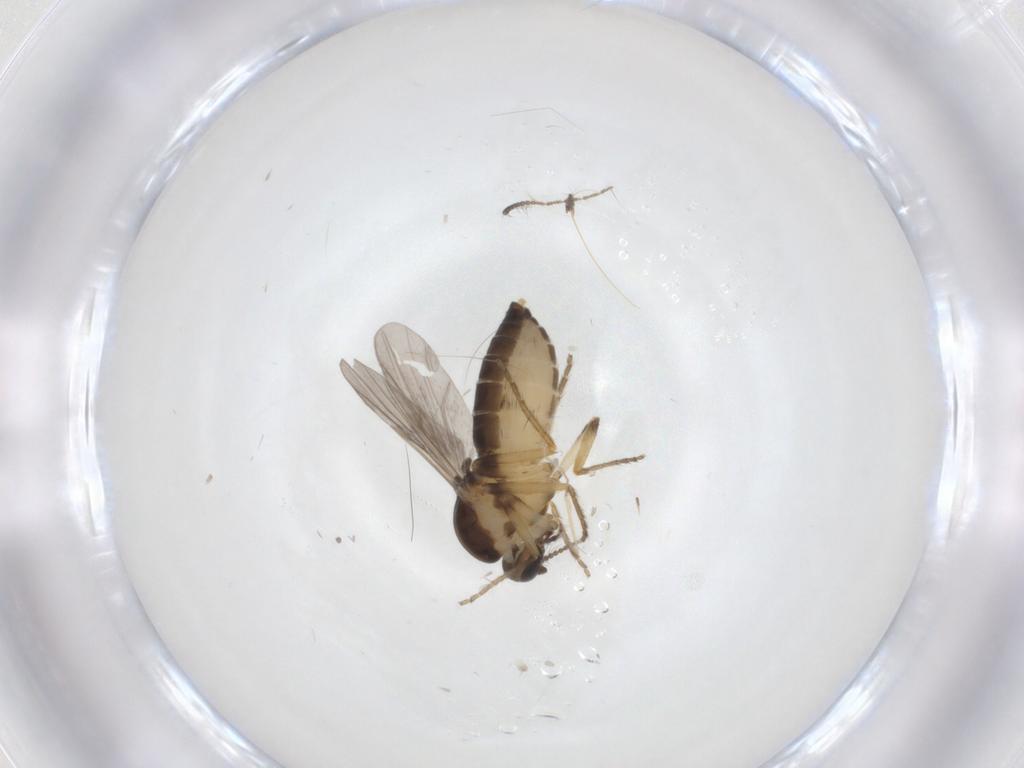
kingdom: Animalia
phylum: Arthropoda
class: Insecta
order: Diptera
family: Ceratopogonidae
